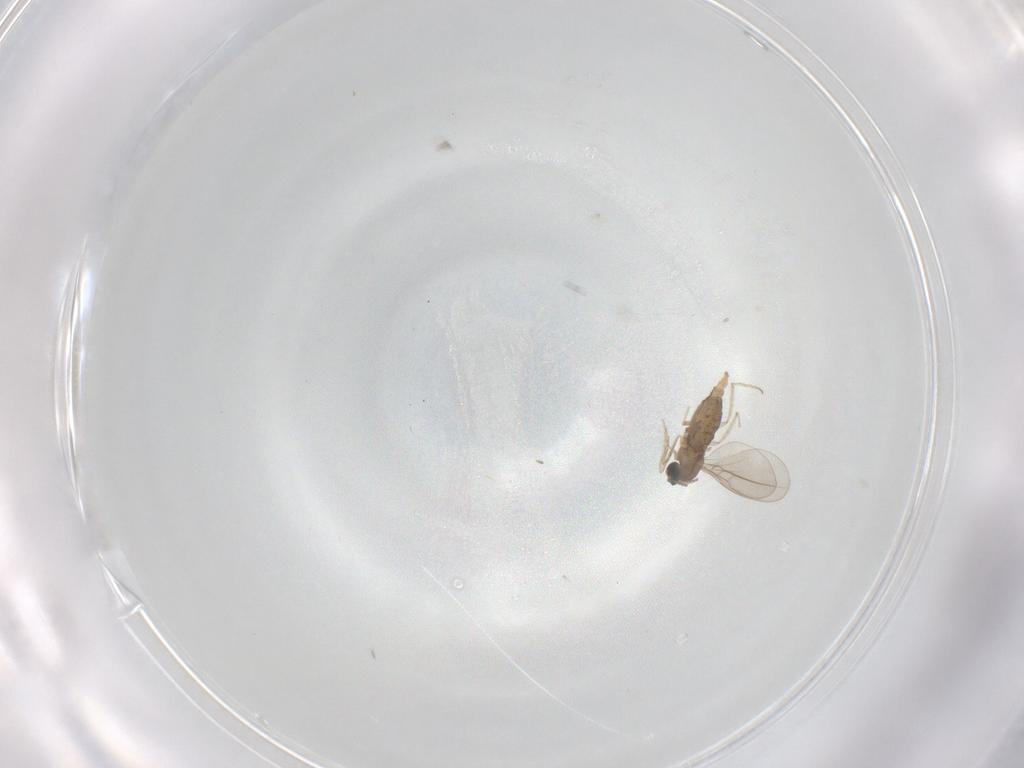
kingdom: Animalia
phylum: Arthropoda
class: Insecta
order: Diptera
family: Cecidomyiidae
